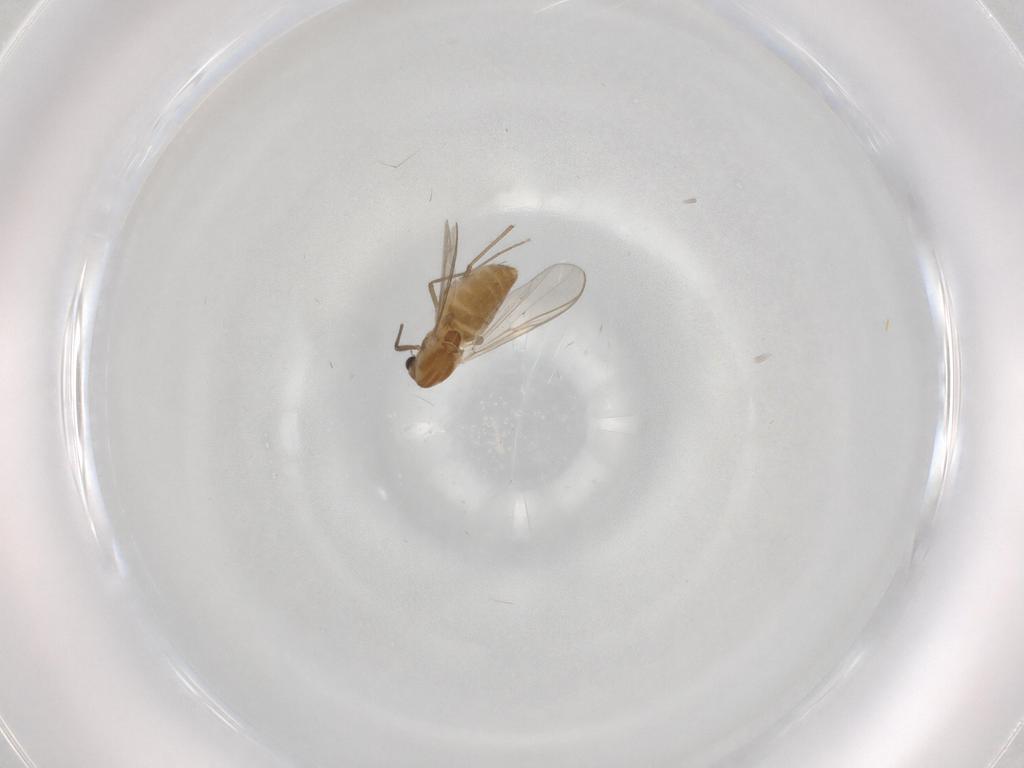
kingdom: Animalia
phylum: Arthropoda
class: Insecta
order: Diptera
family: Chironomidae
